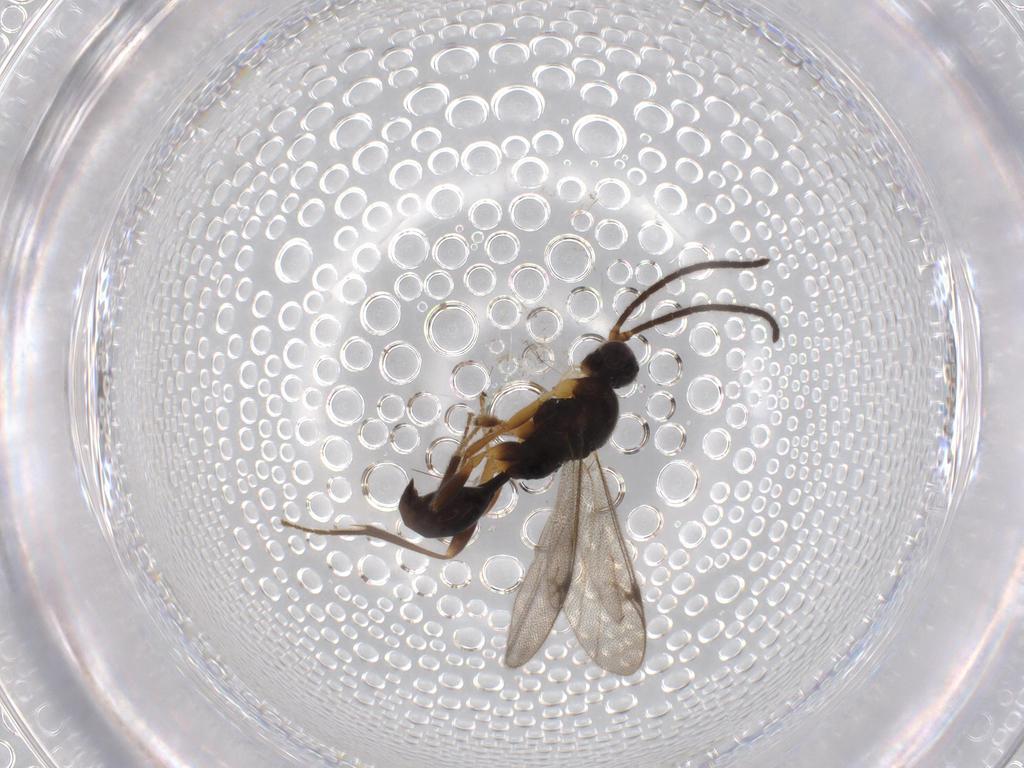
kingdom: Animalia
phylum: Arthropoda
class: Insecta
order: Hymenoptera
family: Proctotrupidae
